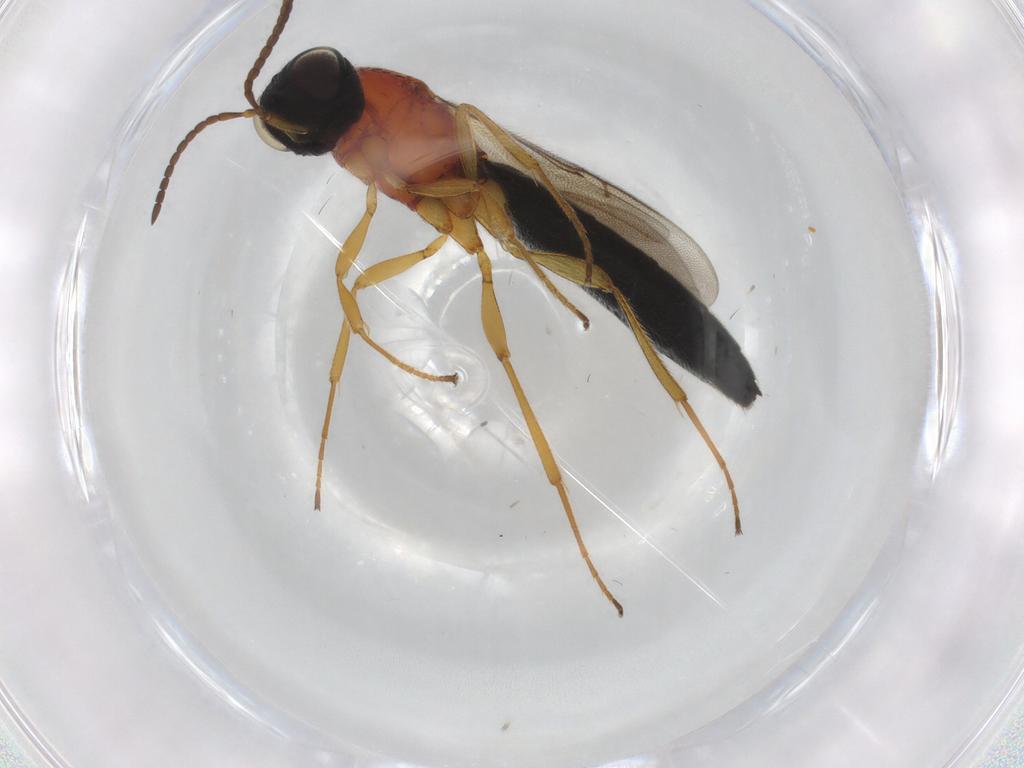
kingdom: Animalia
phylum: Arthropoda
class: Insecta
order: Hymenoptera
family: Scelionidae
